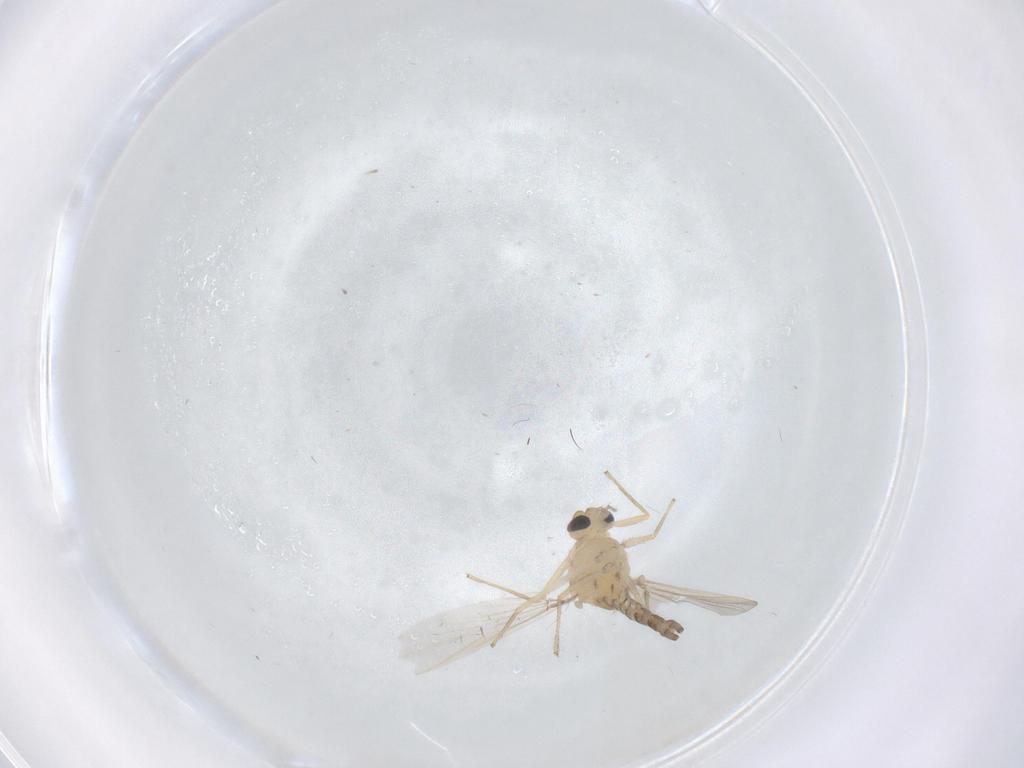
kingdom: Animalia
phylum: Arthropoda
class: Insecta
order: Diptera
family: Chironomidae
